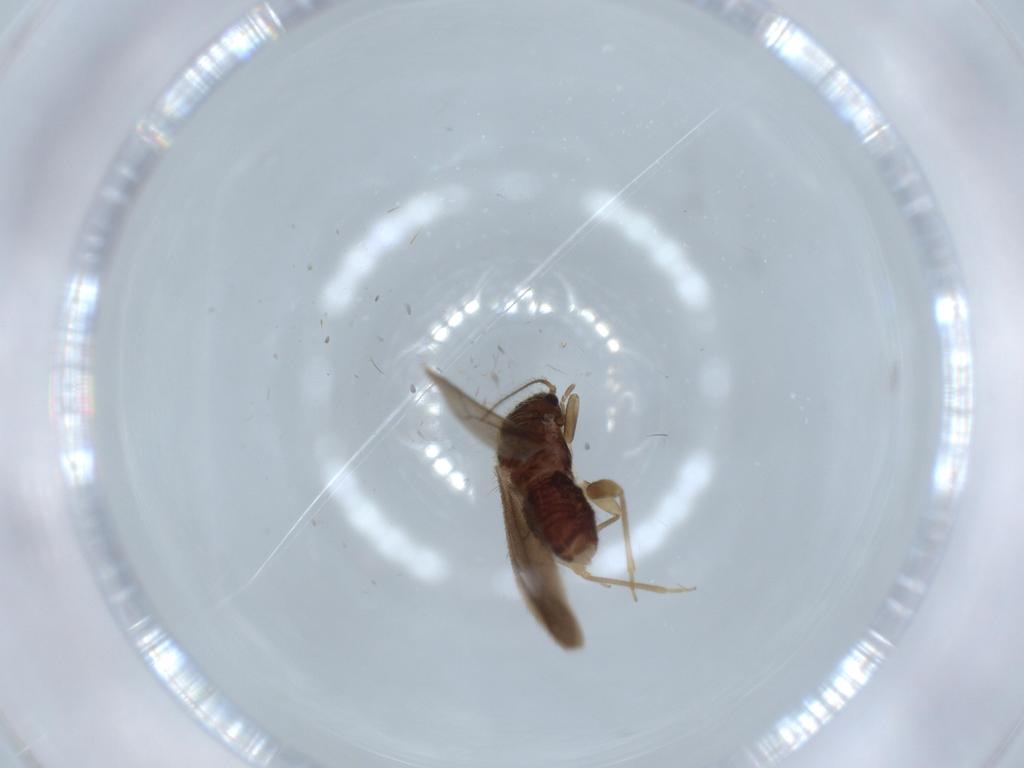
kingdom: Animalia
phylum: Arthropoda
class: Insecta
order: Psocodea
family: Archipsocidae
